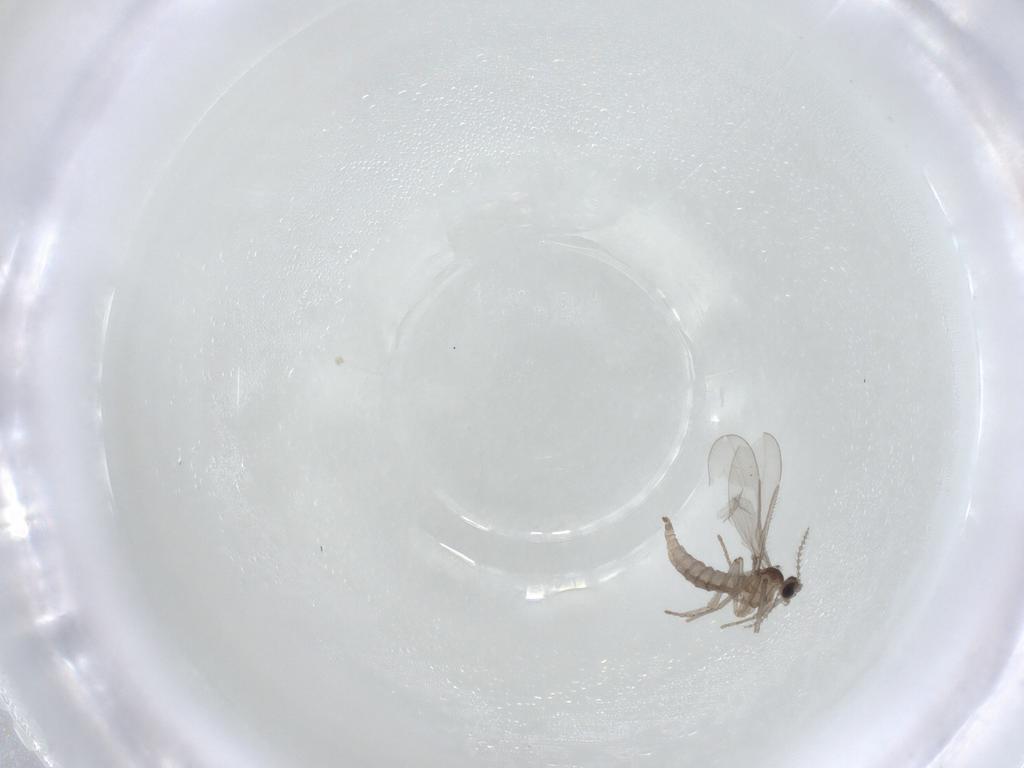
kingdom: Animalia
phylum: Arthropoda
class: Insecta
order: Diptera
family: Cecidomyiidae
